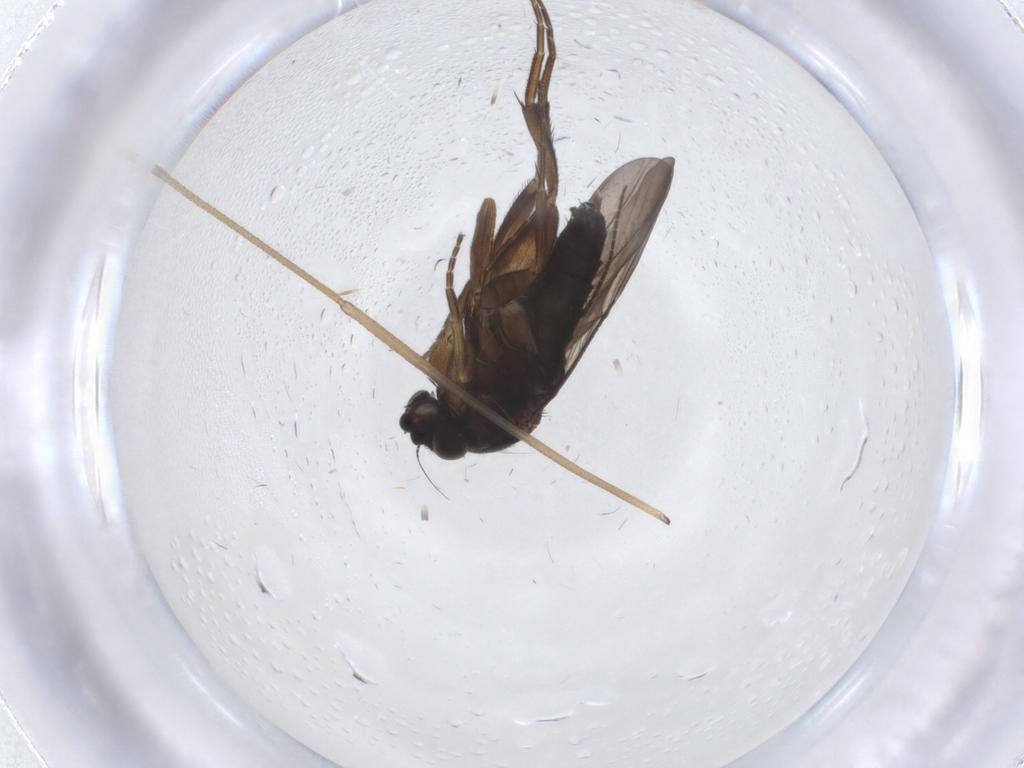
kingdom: Animalia
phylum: Arthropoda
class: Insecta
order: Diptera
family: Phoridae
